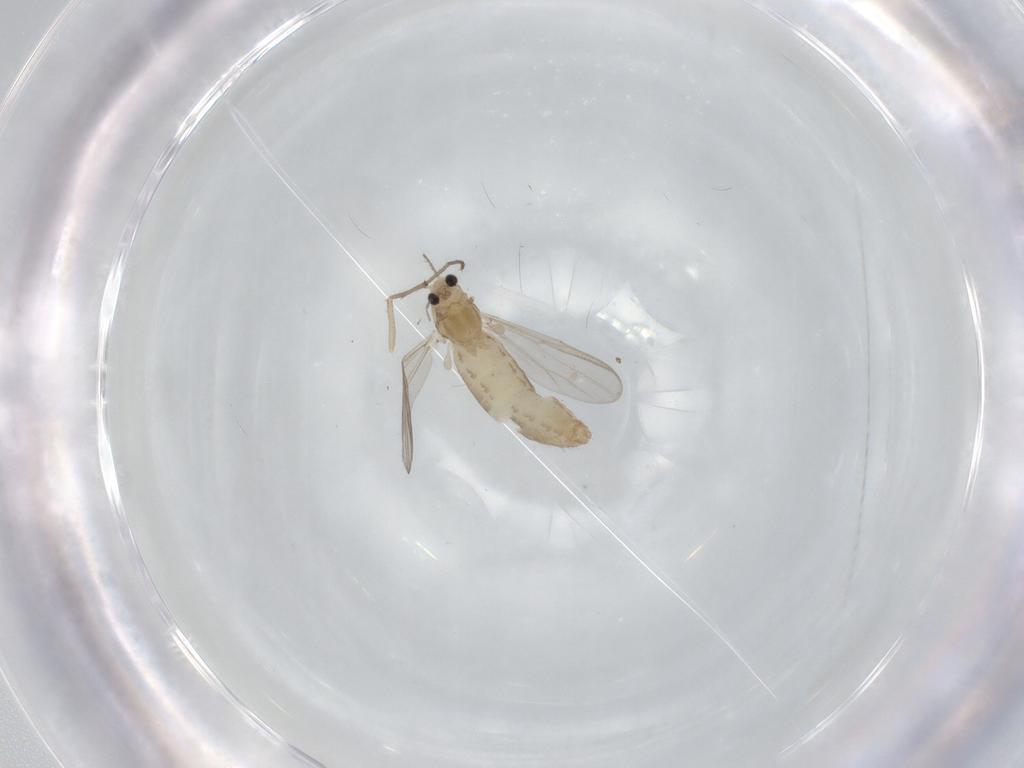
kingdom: Animalia
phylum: Arthropoda
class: Insecta
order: Diptera
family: Chironomidae
